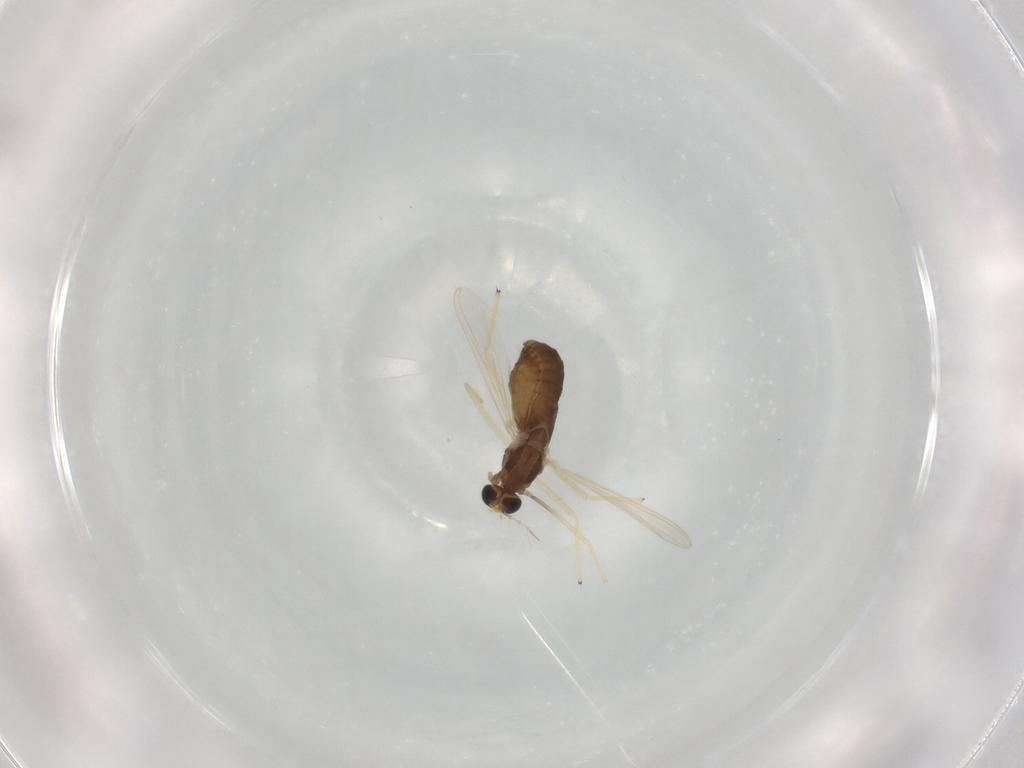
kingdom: Animalia
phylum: Arthropoda
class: Insecta
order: Diptera
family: Chironomidae
